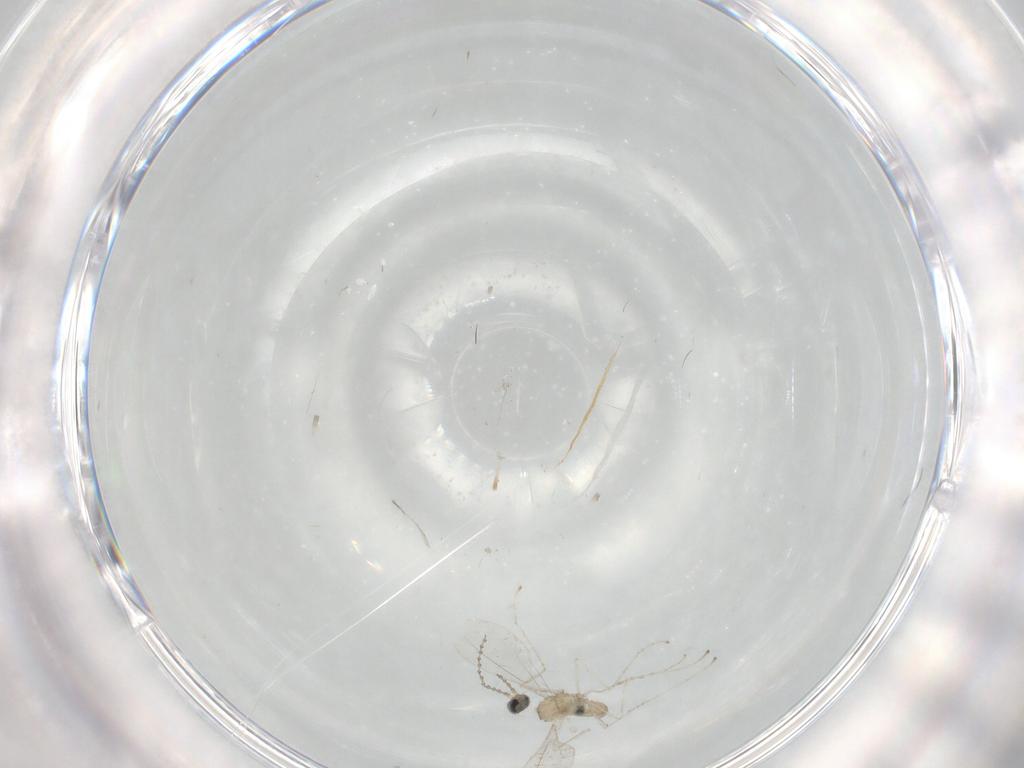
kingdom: Animalia
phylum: Arthropoda
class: Insecta
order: Diptera
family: Cecidomyiidae
